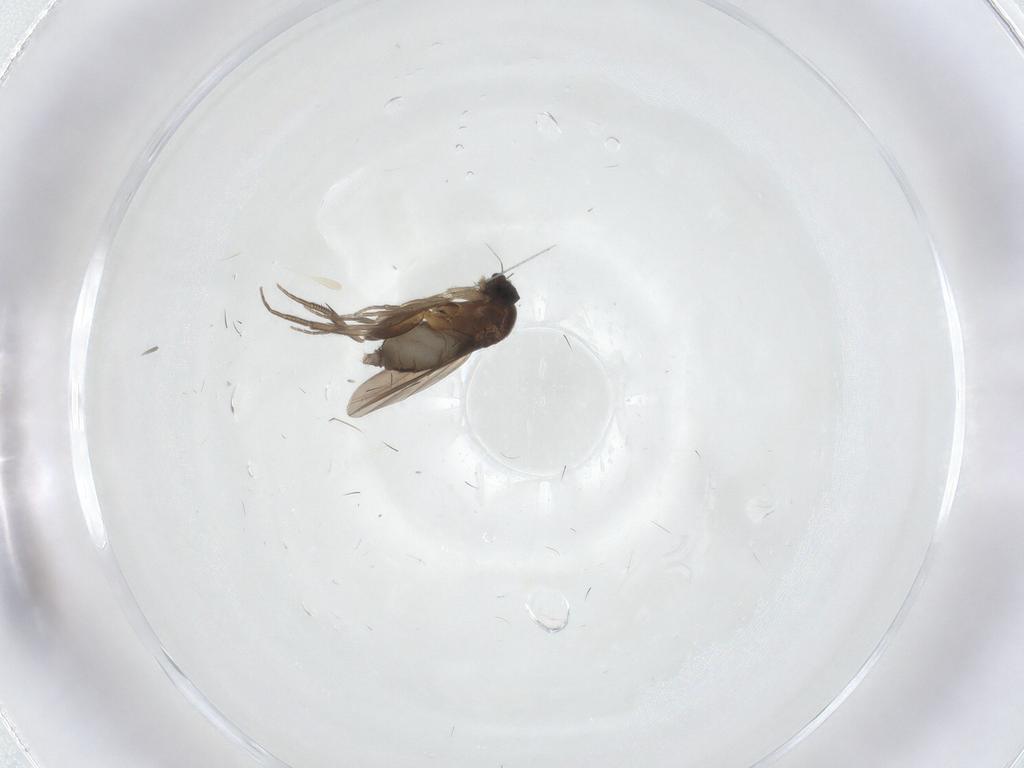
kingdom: Animalia
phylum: Arthropoda
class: Insecta
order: Diptera
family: Phoridae
